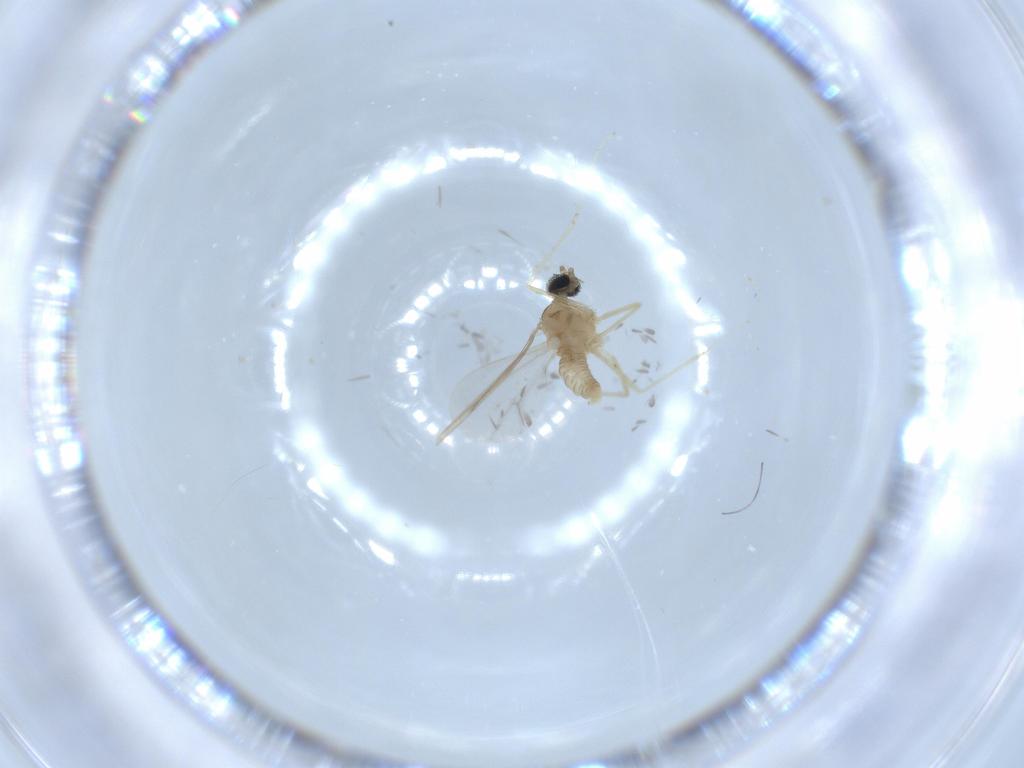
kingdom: Animalia
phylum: Arthropoda
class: Insecta
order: Diptera
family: Cecidomyiidae
